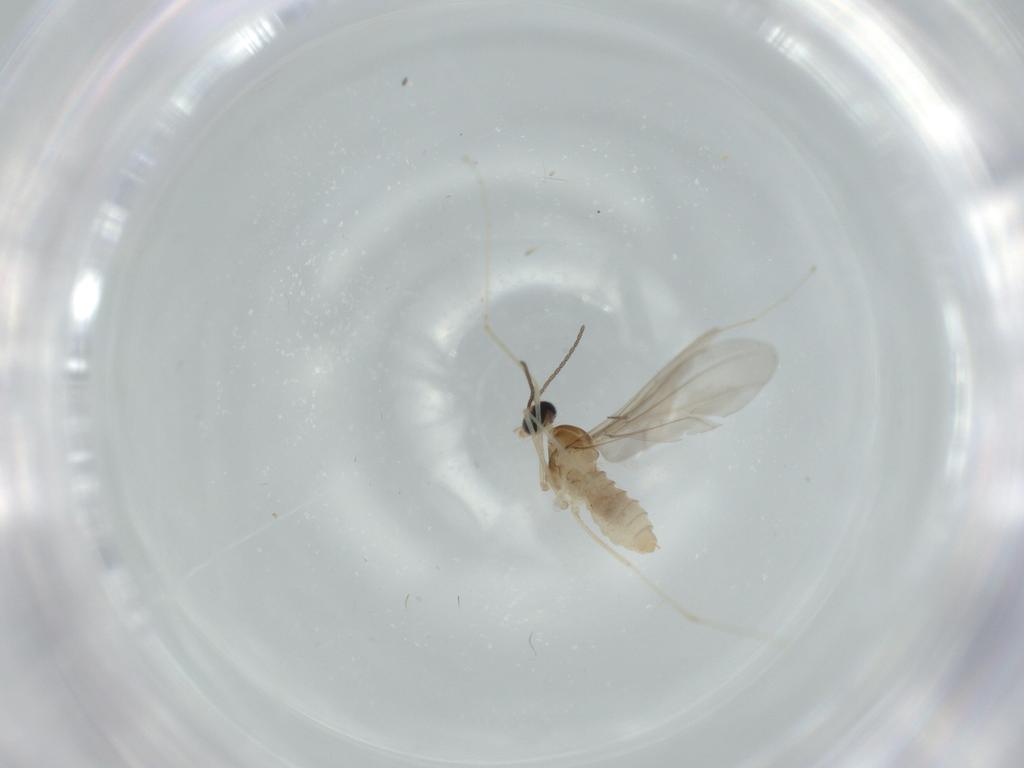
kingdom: Animalia
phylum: Arthropoda
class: Insecta
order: Diptera
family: Cecidomyiidae
